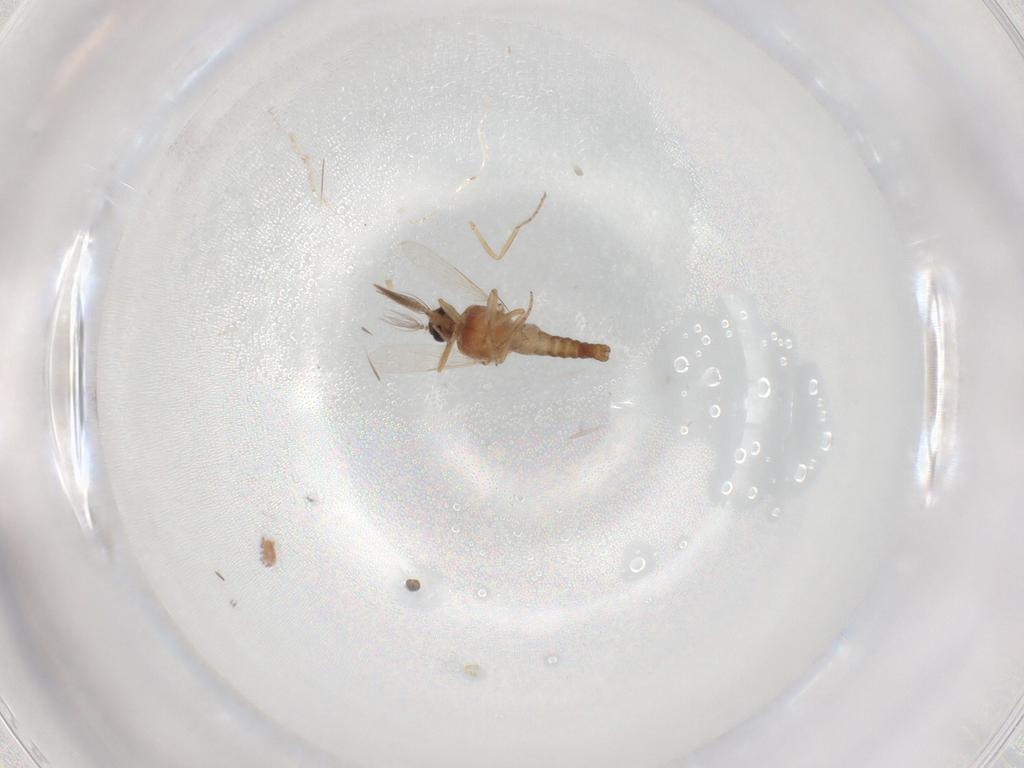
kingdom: Animalia
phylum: Arthropoda
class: Insecta
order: Diptera
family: Ceratopogonidae
